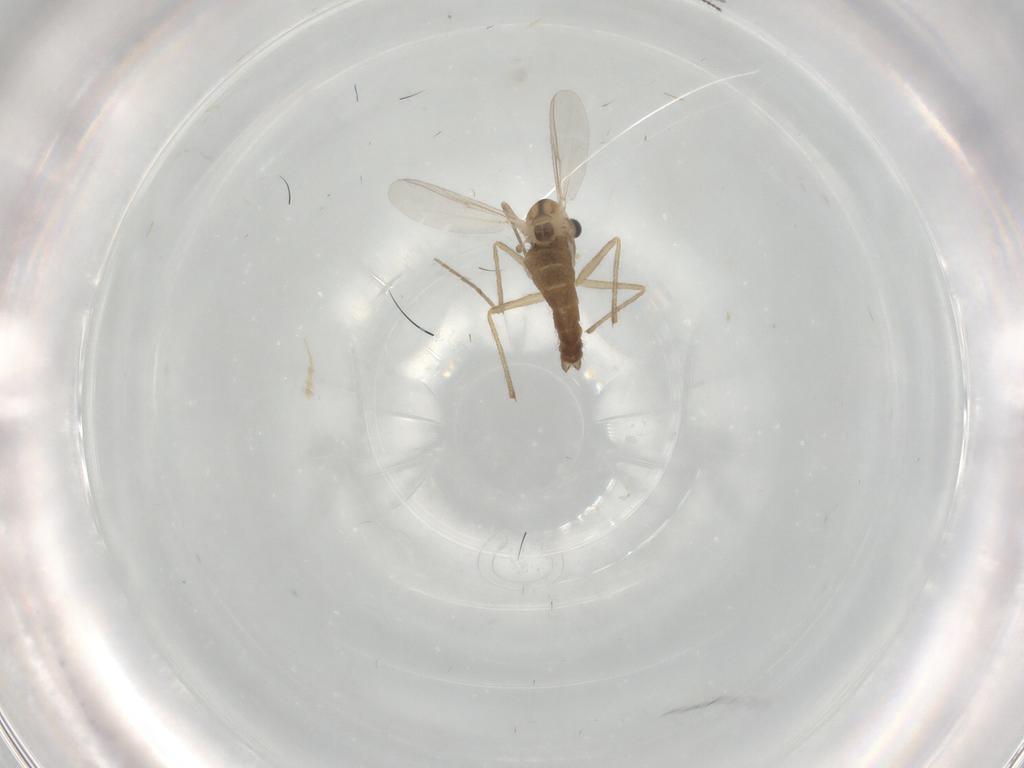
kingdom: Animalia
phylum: Arthropoda
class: Insecta
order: Diptera
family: Chironomidae
